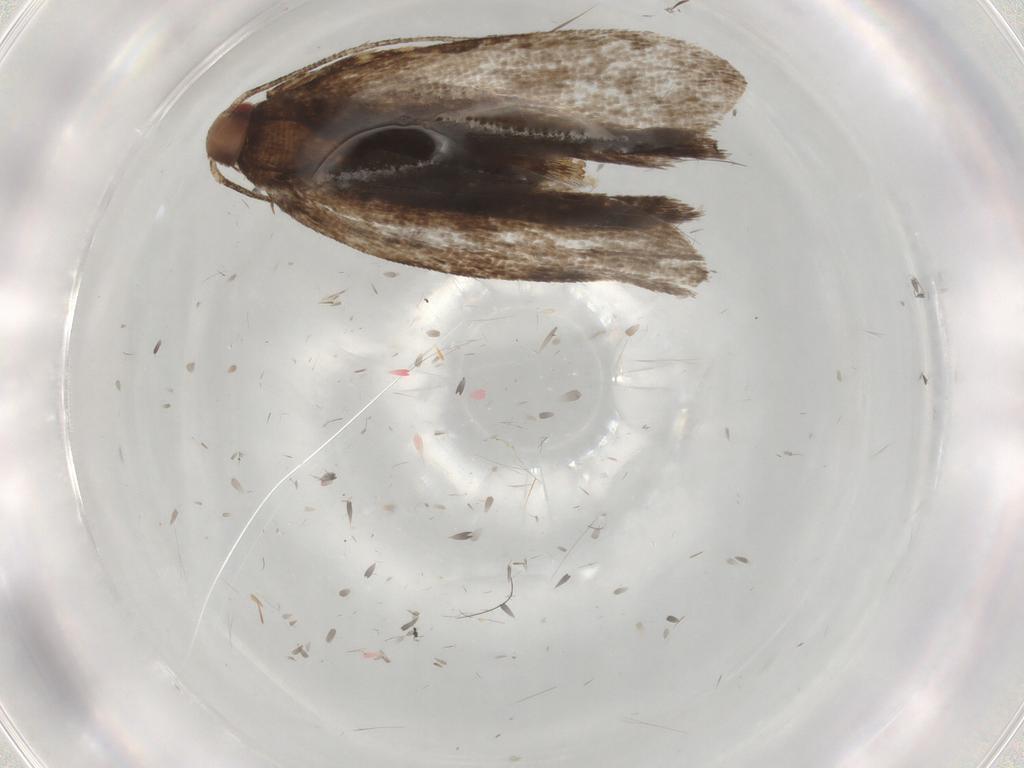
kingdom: Animalia
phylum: Arthropoda
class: Insecta
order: Lepidoptera
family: Gelechiidae
